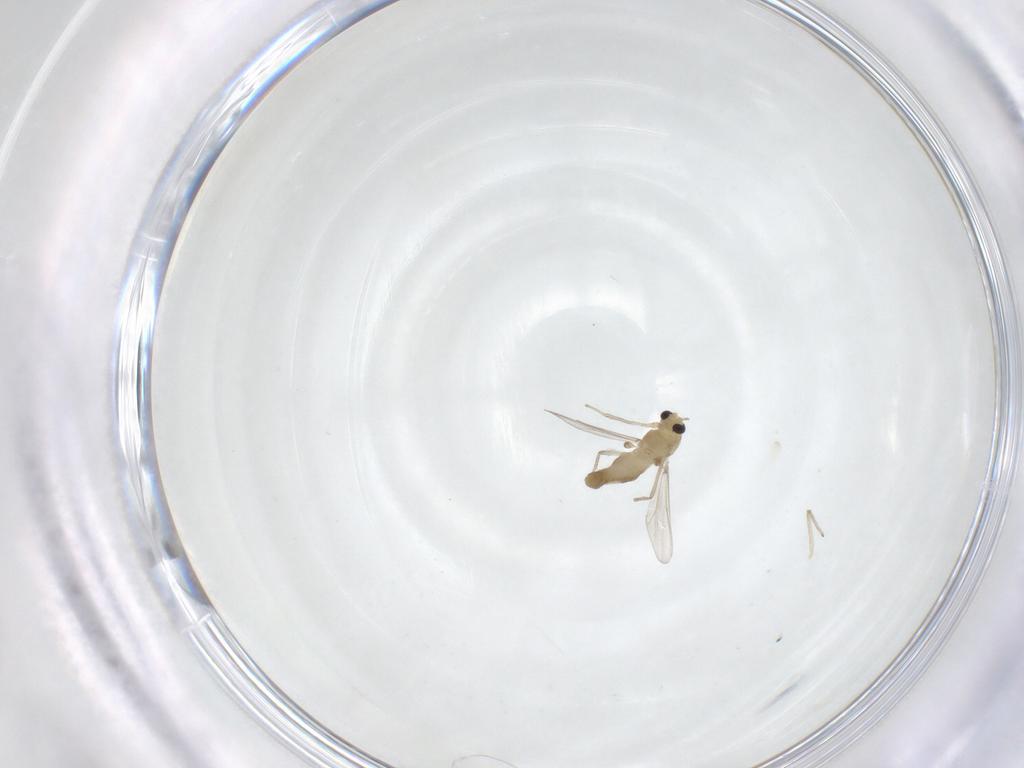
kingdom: Animalia
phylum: Arthropoda
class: Insecta
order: Diptera
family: Chironomidae
